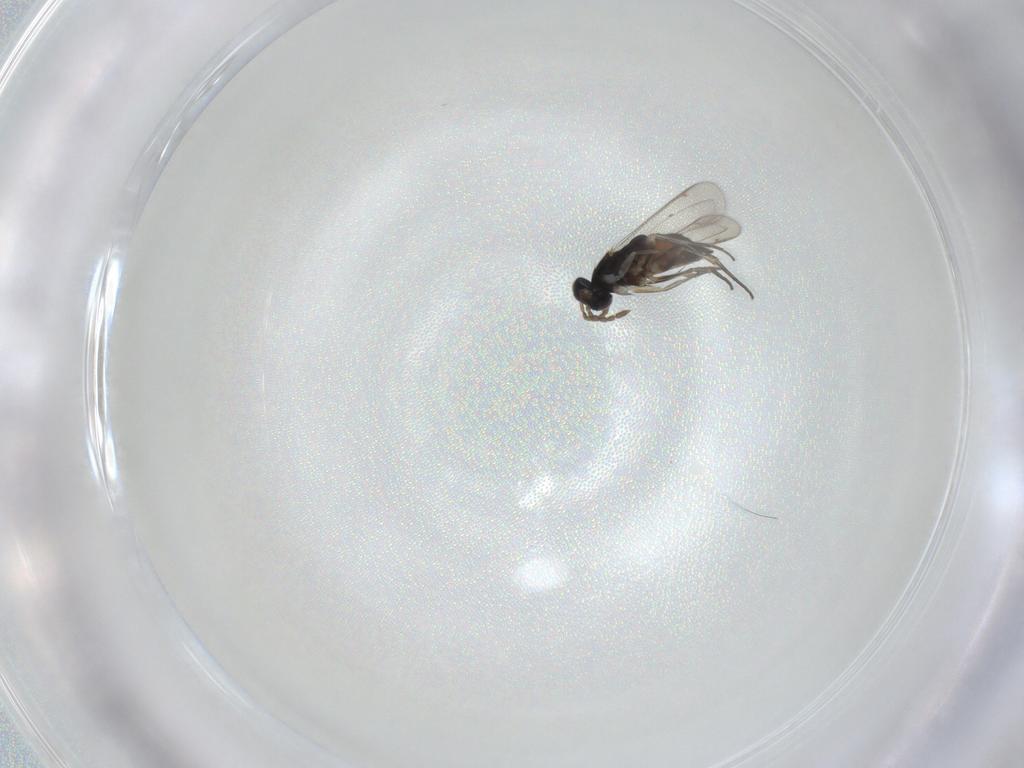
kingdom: Animalia
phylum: Arthropoda
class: Insecta
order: Hymenoptera
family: Eulophidae
